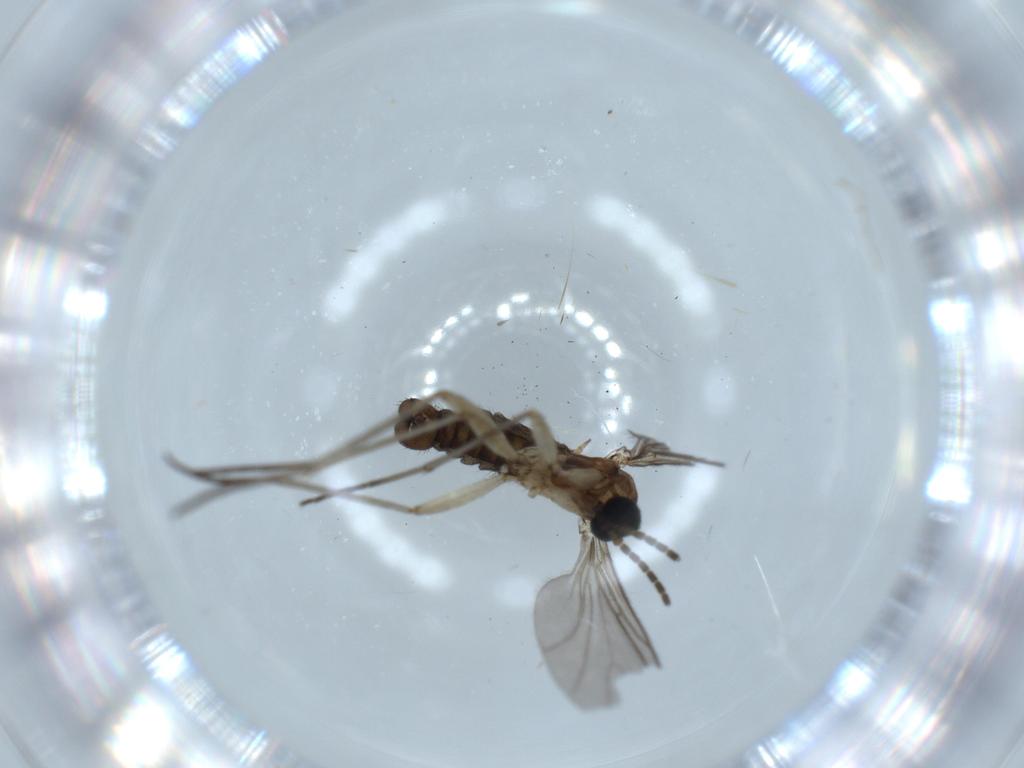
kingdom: Animalia
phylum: Arthropoda
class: Insecta
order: Diptera
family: Sciaridae
